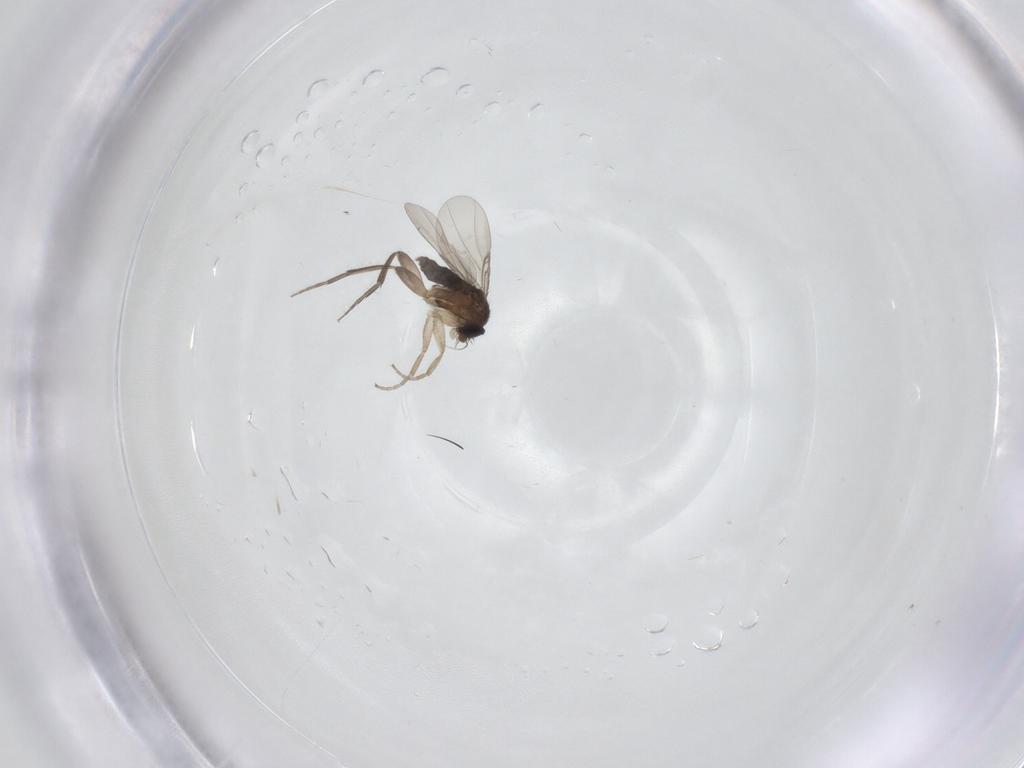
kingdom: Animalia
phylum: Arthropoda
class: Insecta
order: Diptera
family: Phoridae
